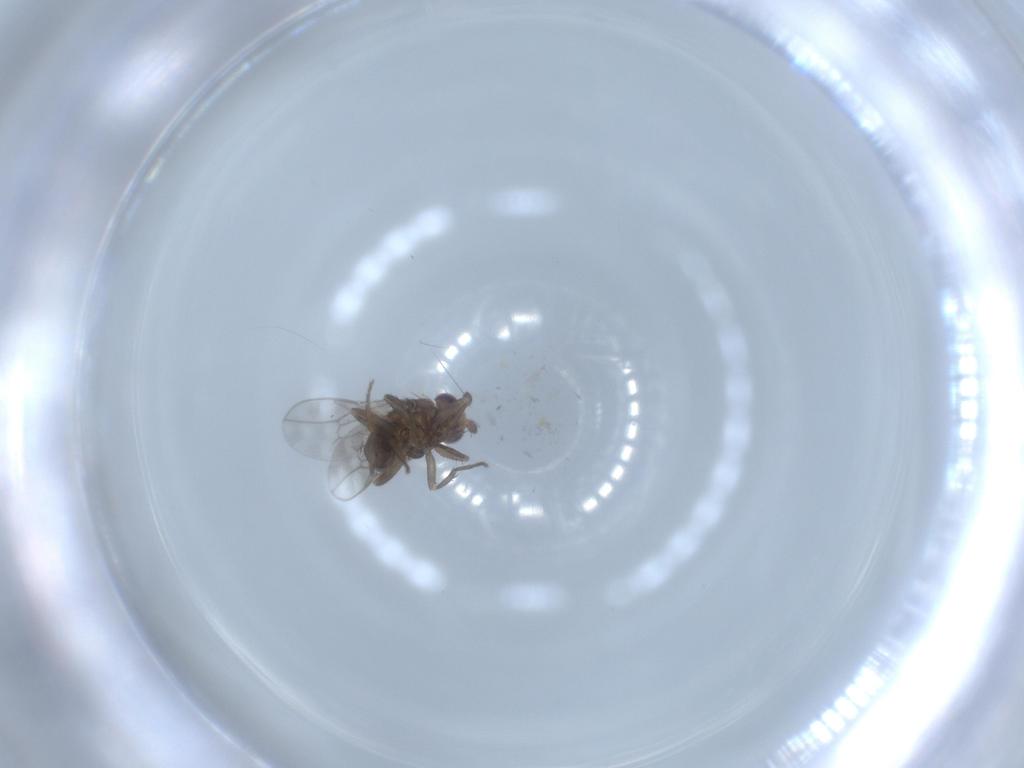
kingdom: Animalia
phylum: Arthropoda
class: Insecta
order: Diptera
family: Sphaeroceridae
